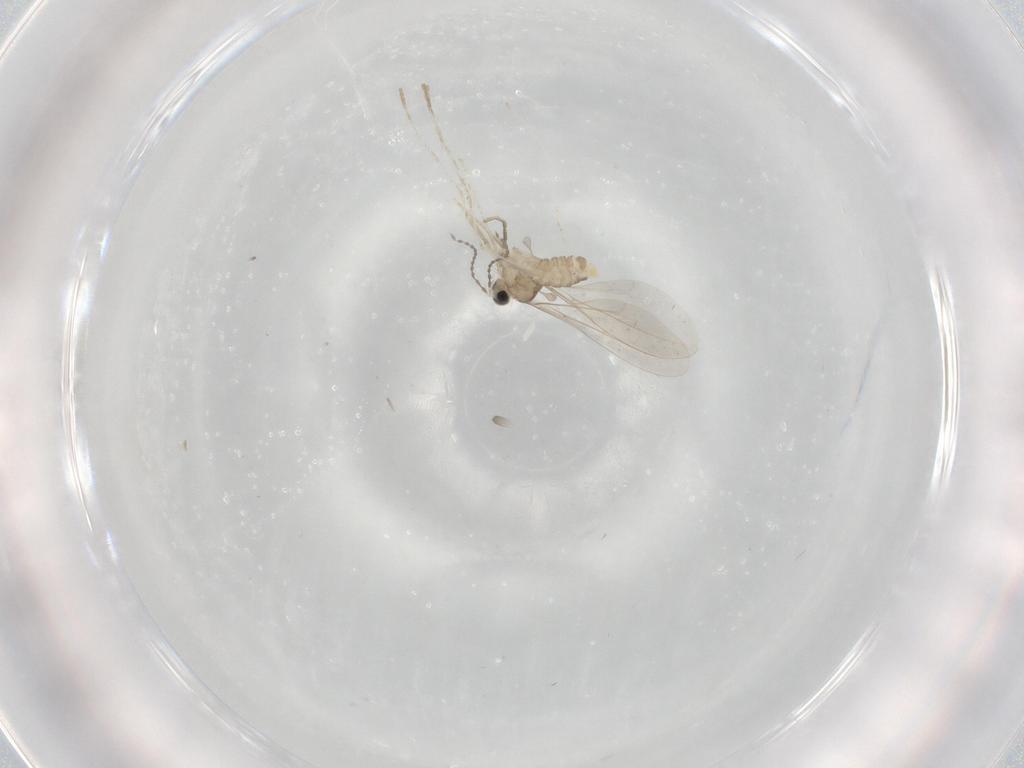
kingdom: Animalia
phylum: Arthropoda
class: Insecta
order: Diptera
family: Cecidomyiidae
